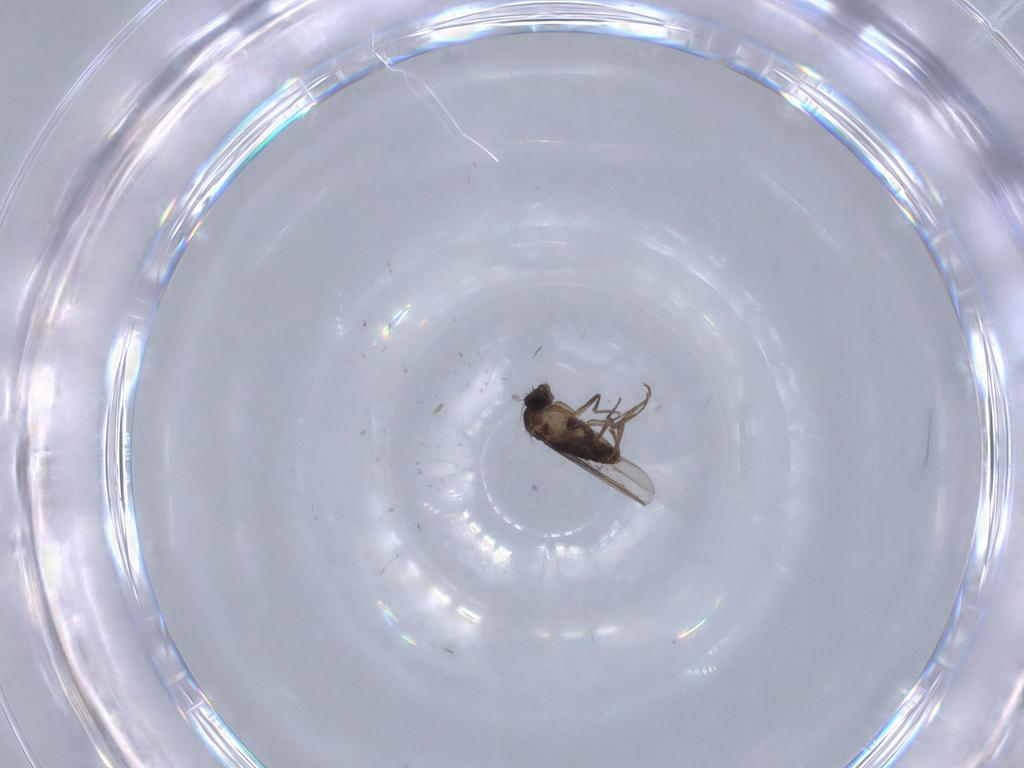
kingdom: Animalia
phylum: Arthropoda
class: Insecta
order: Diptera
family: Phoridae
